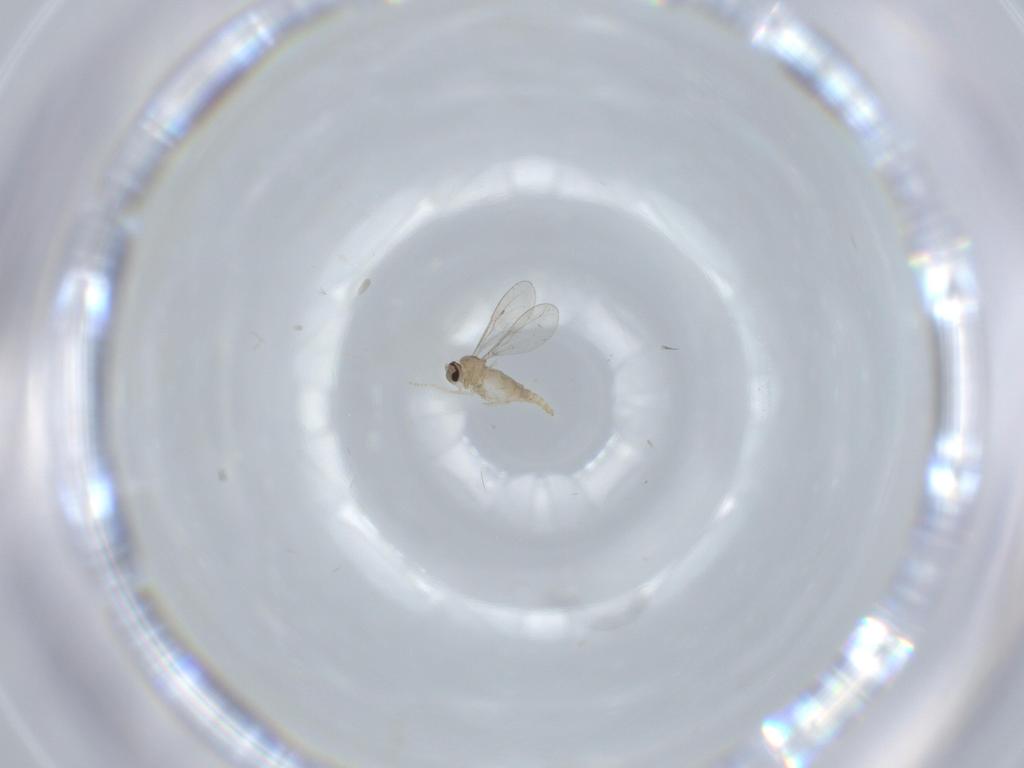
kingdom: Animalia
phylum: Arthropoda
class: Insecta
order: Diptera
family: Cecidomyiidae
